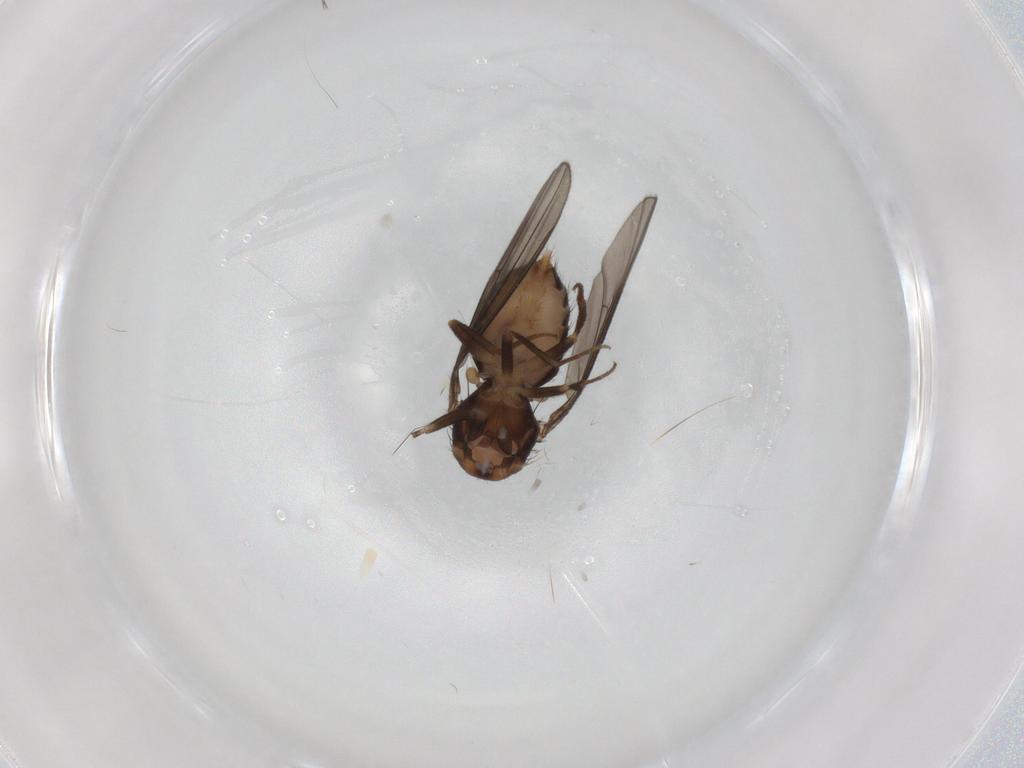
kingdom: Animalia
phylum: Arthropoda
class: Insecta
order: Diptera
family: Drosophilidae
